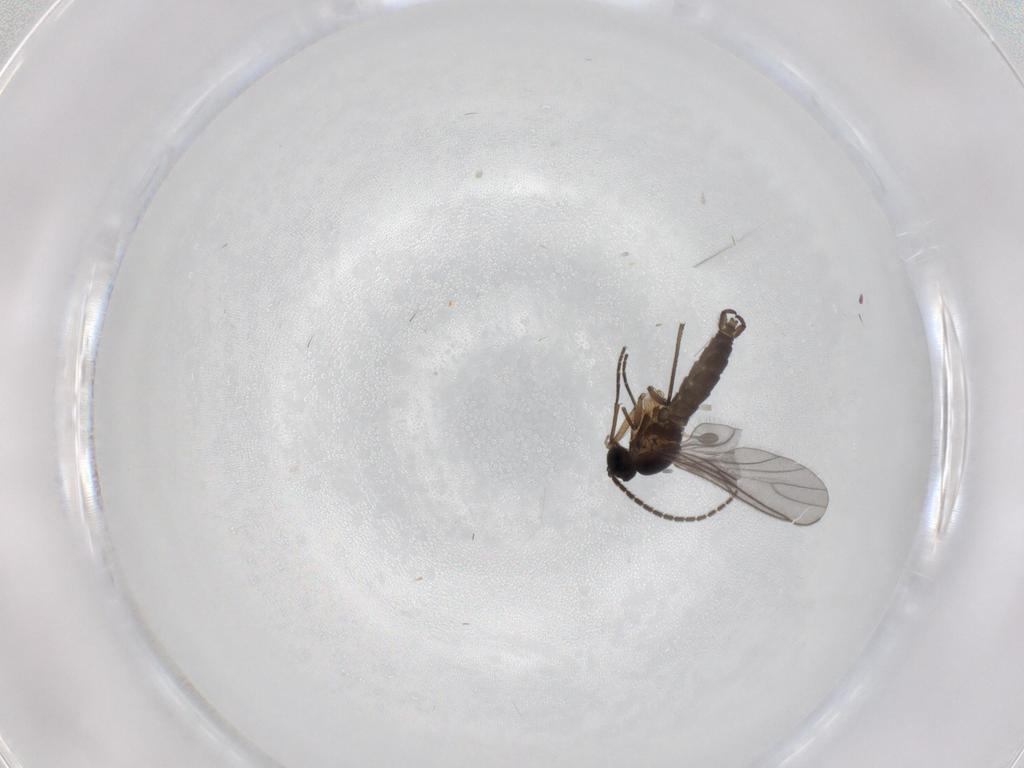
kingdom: Animalia
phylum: Arthropoda
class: Insecta
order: Diptera
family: Sciaridae
